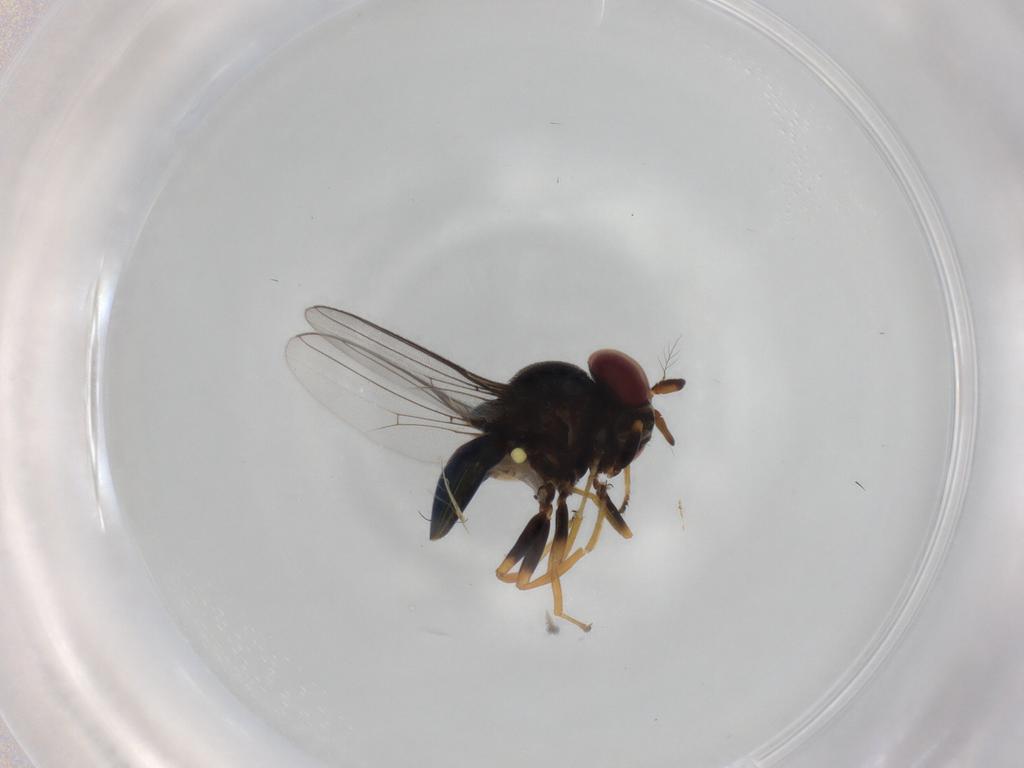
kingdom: Animalia
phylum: Arthropoda
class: Insecta
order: Diptera
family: Chloropidae
